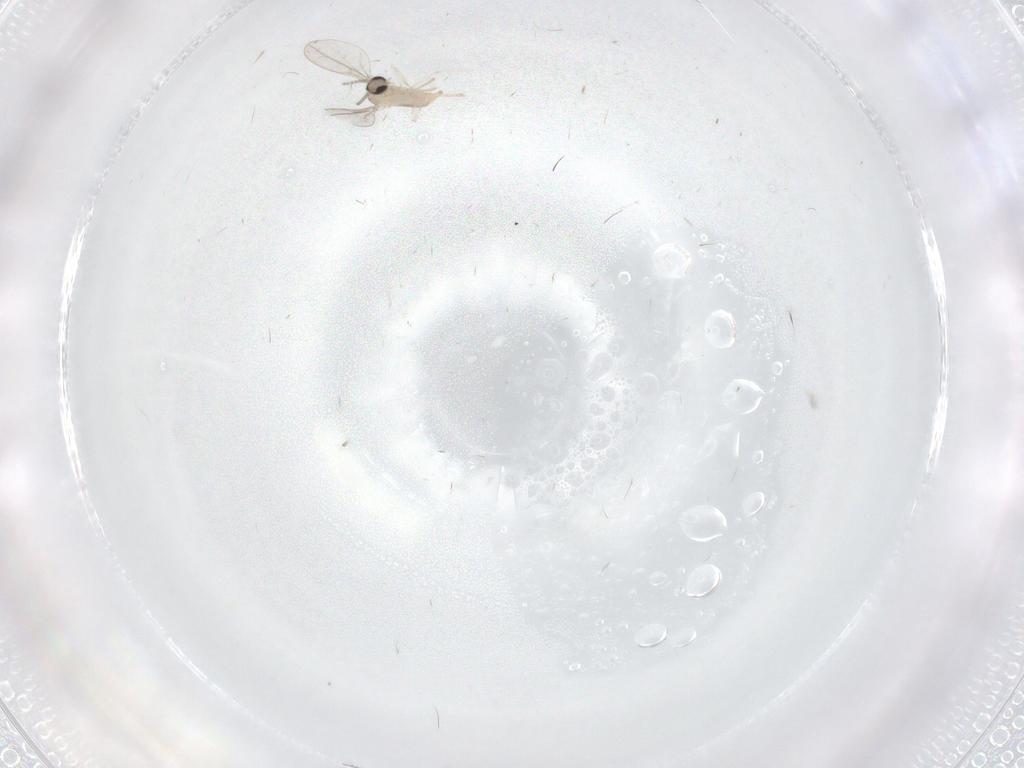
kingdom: Animalia
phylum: Arthropoda
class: Insecta
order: Diptera
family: Cecidomyiidae
